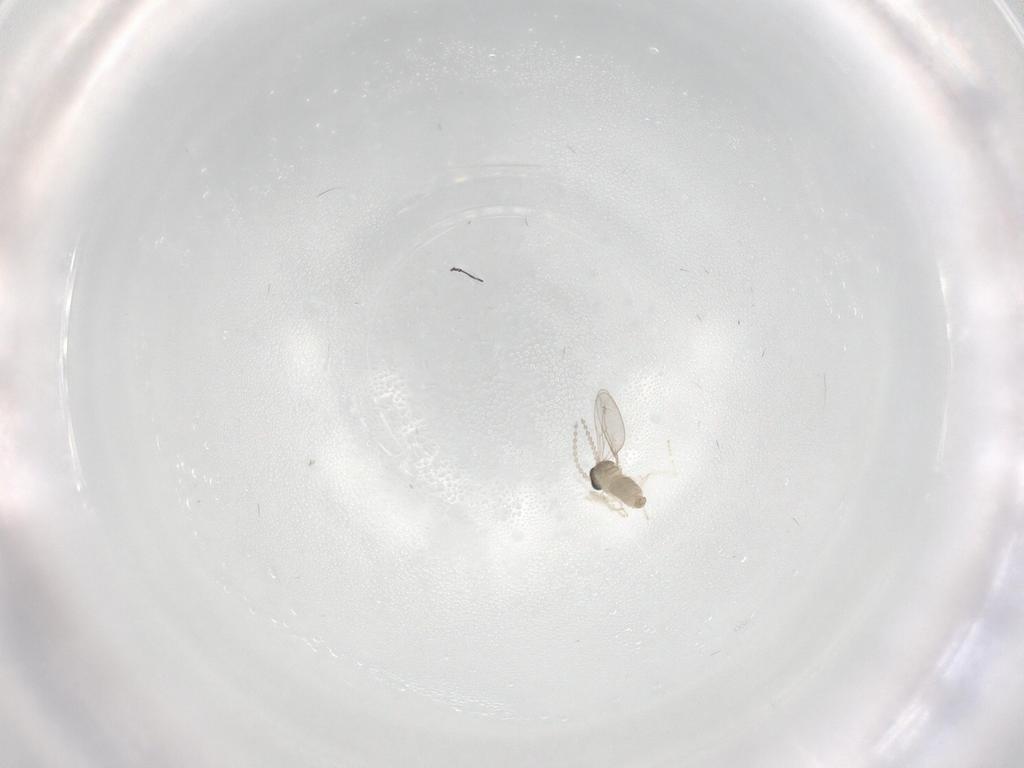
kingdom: Animalia
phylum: Arthropoda
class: Insecta
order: Diptera
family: Cecidomyiidae
